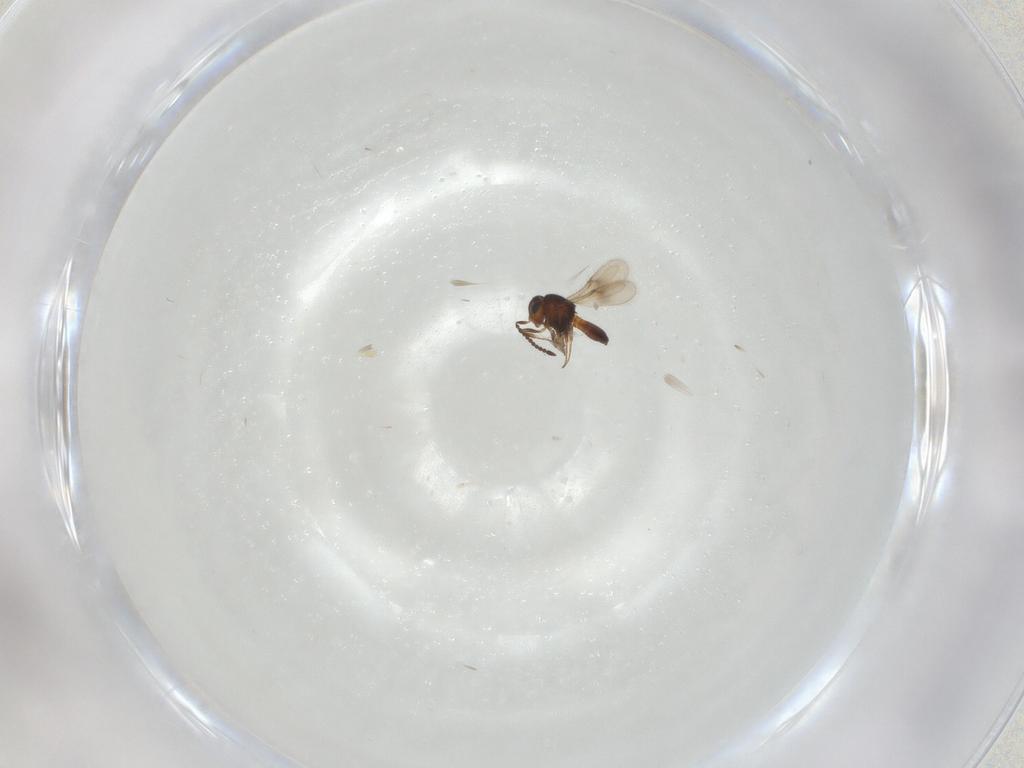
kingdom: Animalia
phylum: Arthropoda
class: Insecta
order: Hymenoptera
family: Scelionidae
